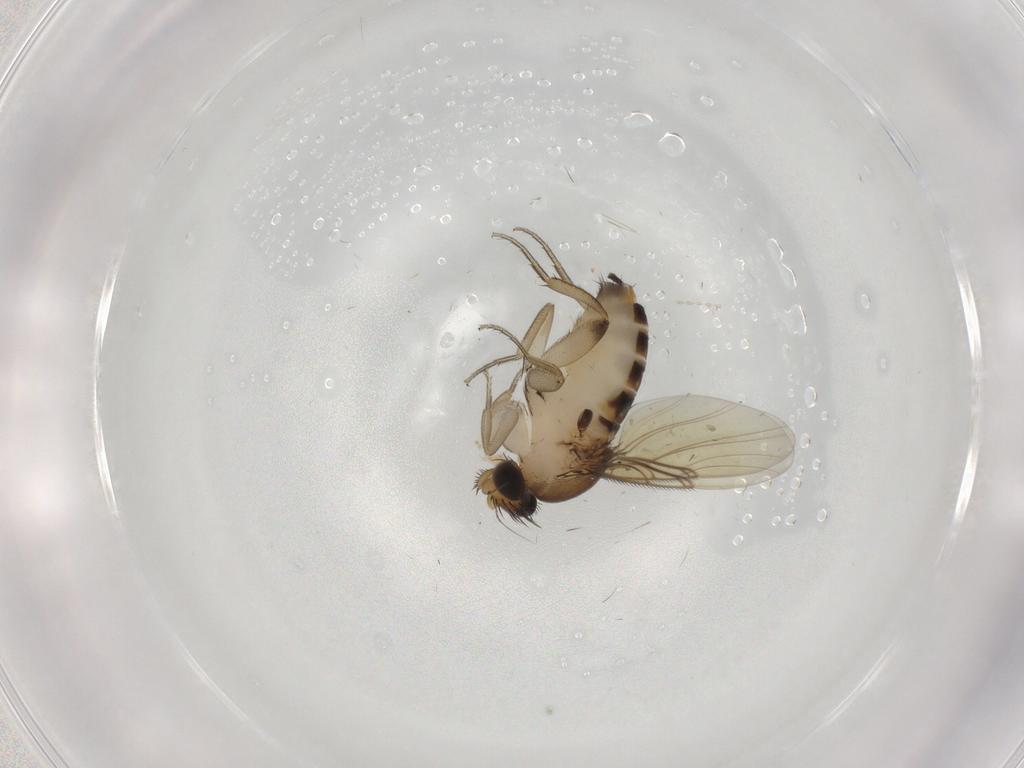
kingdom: Animalia
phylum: Arthropoda
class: Insecta
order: Diptera
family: Phoridae
